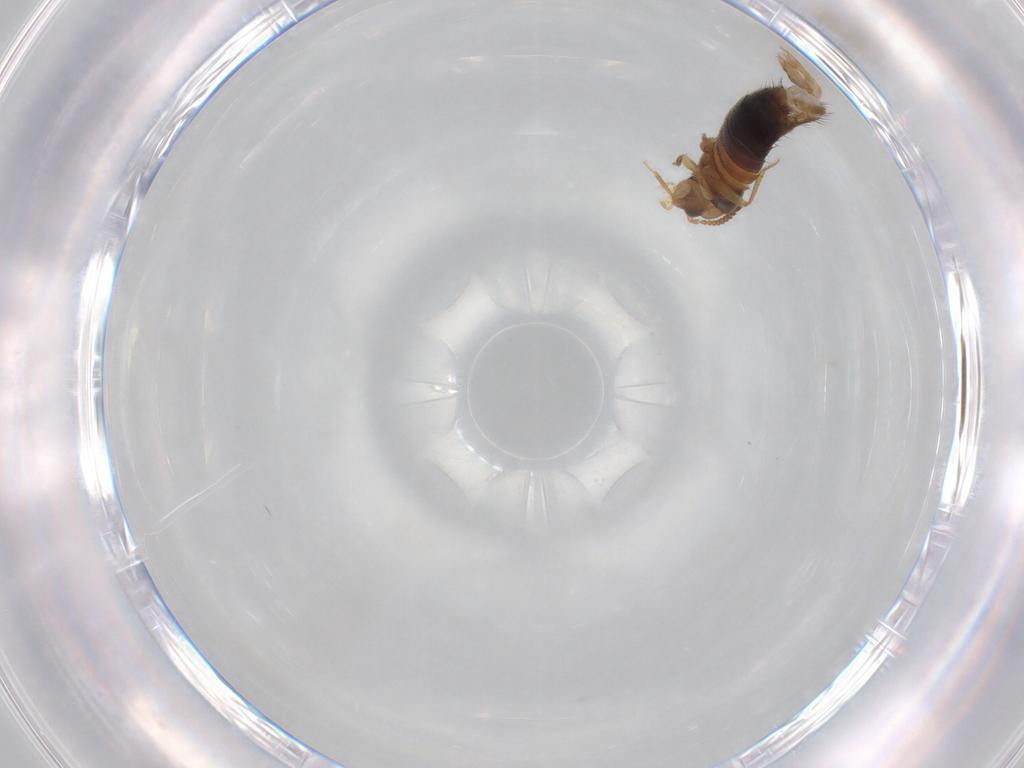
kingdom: Animalia
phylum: Arthropoda
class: Insecta
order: Coleoptera
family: Staphylinidae
